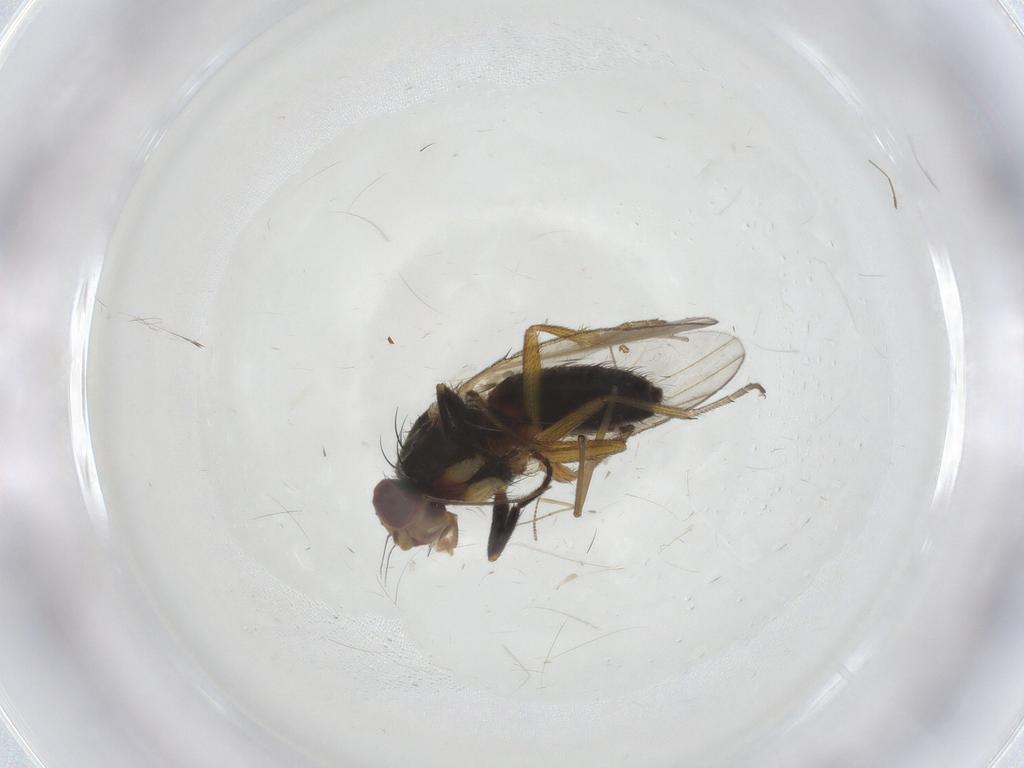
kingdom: Animalia
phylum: Arthropoda
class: Insecta
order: Diptera
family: Heleomyzidae
